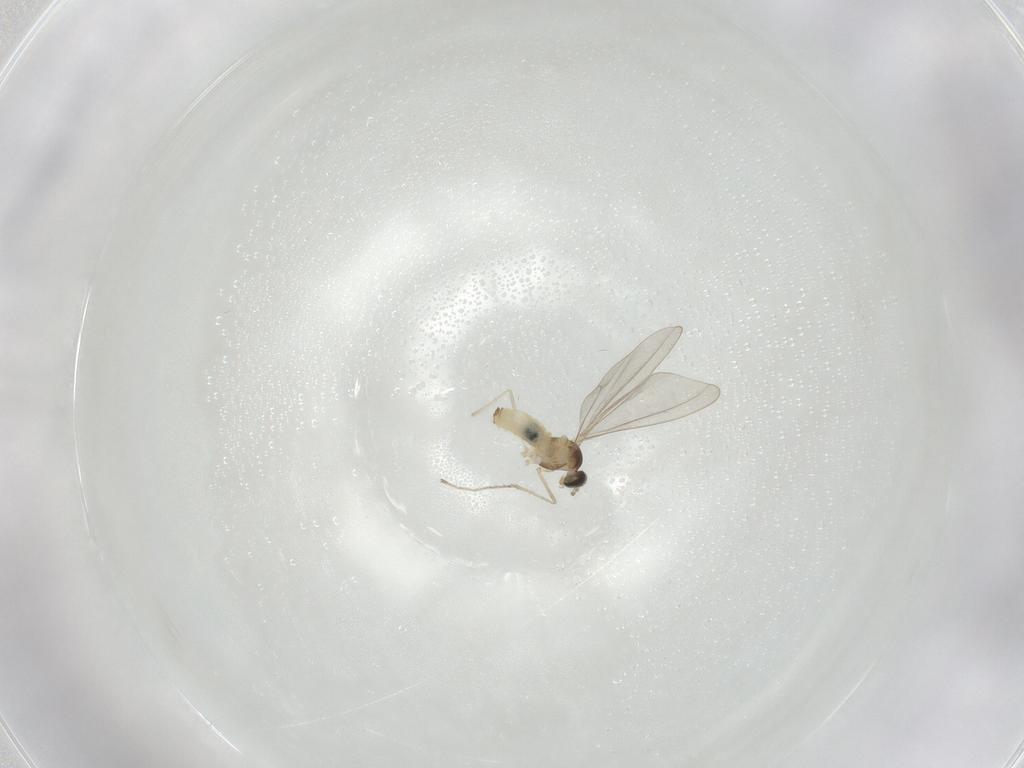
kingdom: Animalia
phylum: Arthropoda
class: Insecta
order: Diptera
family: Cecidomyiidae
